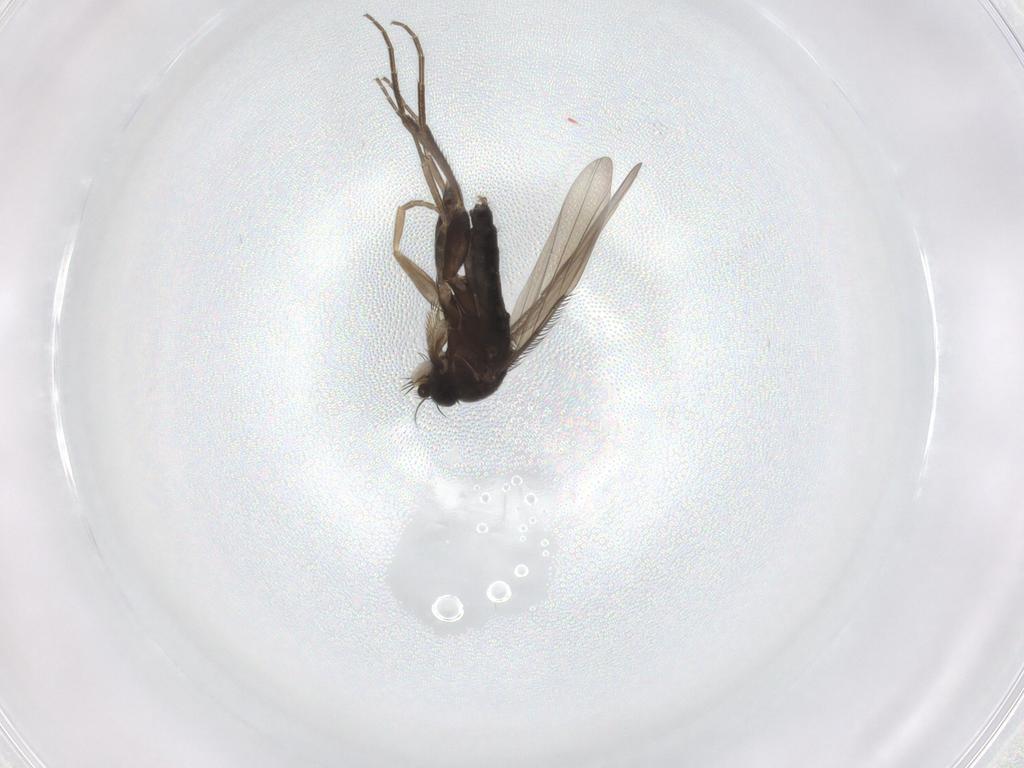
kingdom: Animalia
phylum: Arthropoda
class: Insecta
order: Diptera
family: Phoridae
